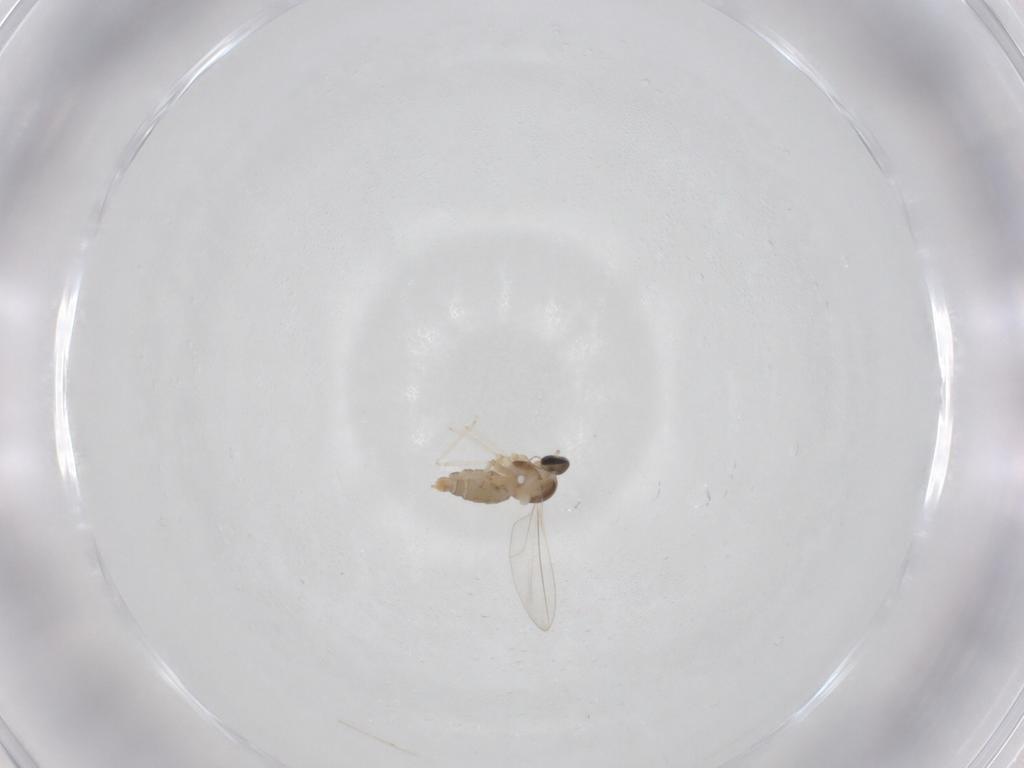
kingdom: Animalia
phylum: Arthropoda
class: Insecta
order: Diptera
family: Cecidomyiidae
